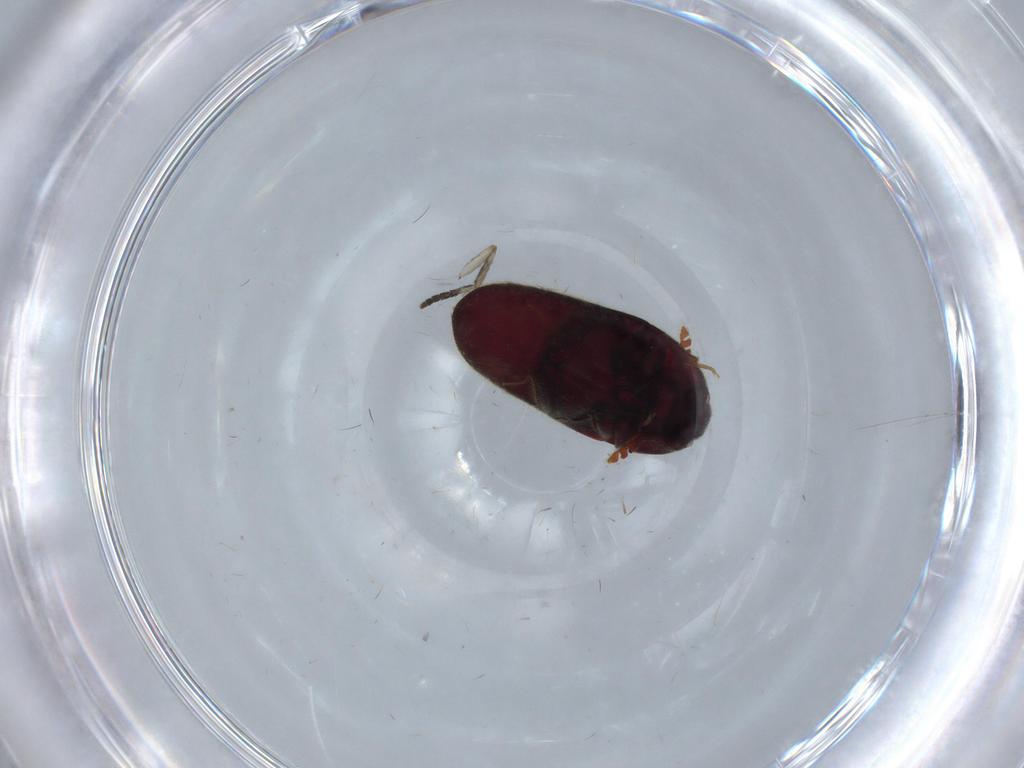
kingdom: Animalia
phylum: Arthropoda
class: Insecta
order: Coleoptera
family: Throscidae
